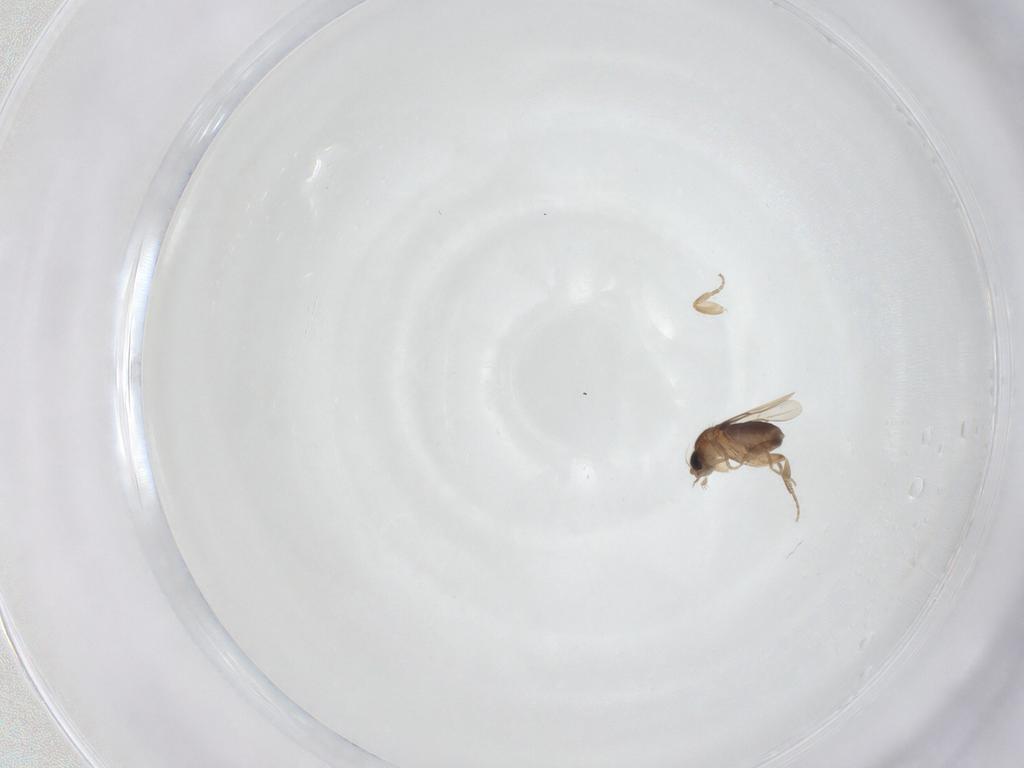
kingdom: Animalia
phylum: Arthropoda
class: Insecta
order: Diptera
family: Phoridae
